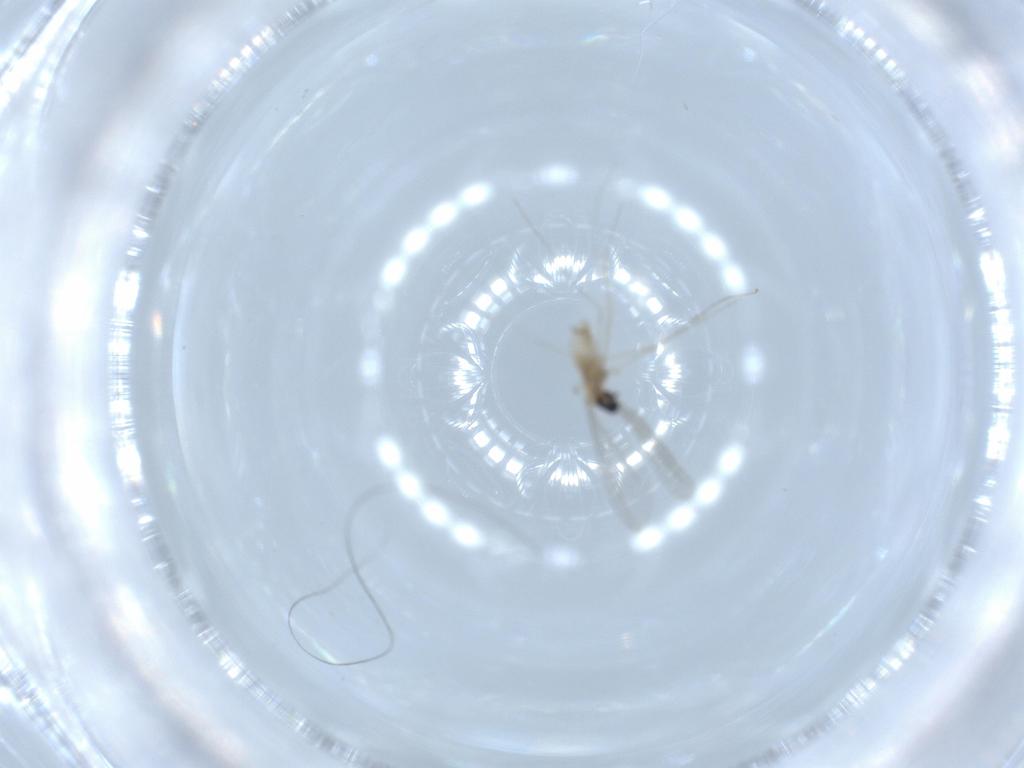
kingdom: Animalia
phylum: Arthropoda
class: Insecta
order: Diptera
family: Cecidomyiidae
